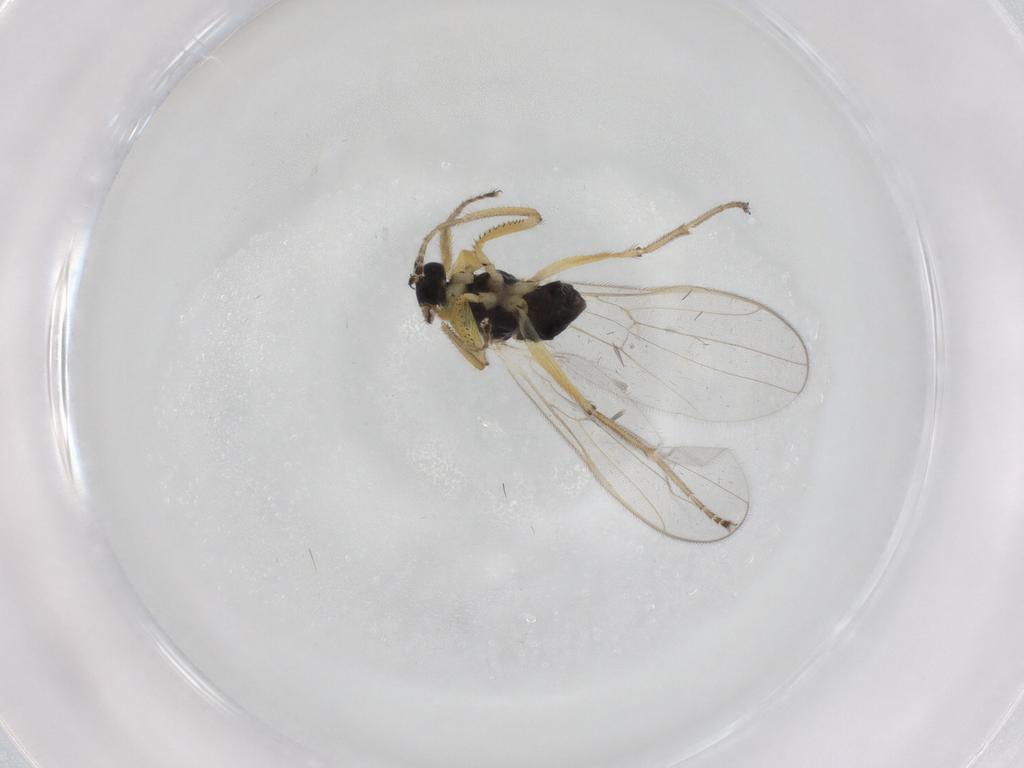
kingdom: Animalia
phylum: Arthropoda
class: Insecta
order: Diptera
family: Hybotidae
